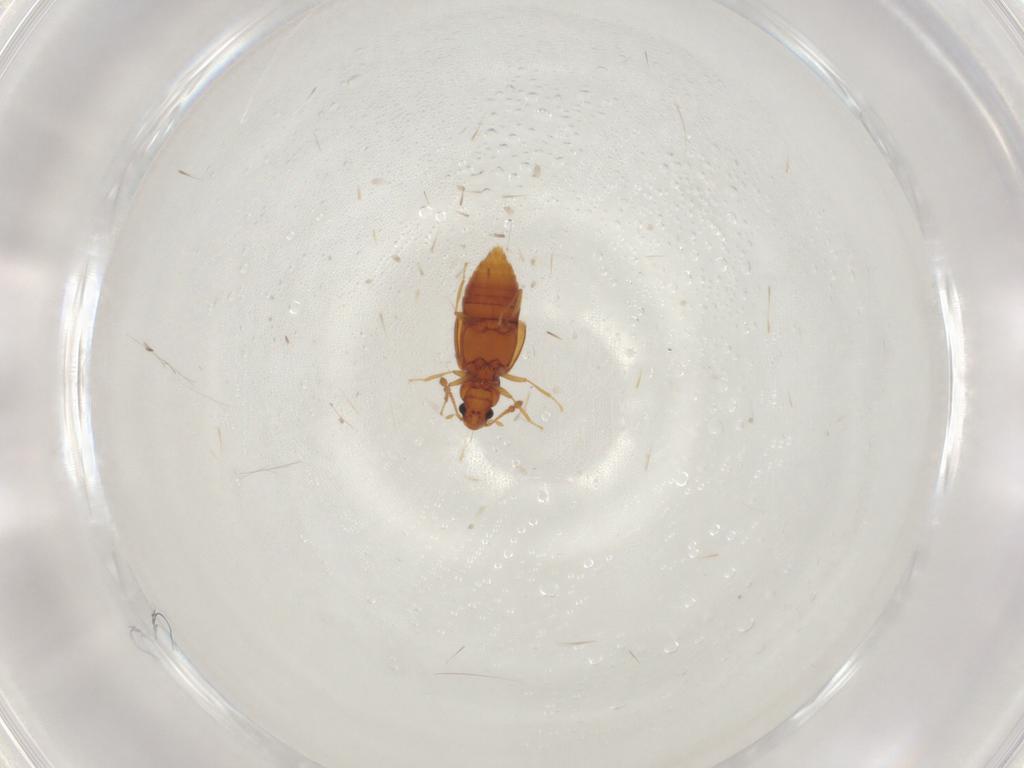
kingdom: Animalia
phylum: Arthropoda
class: Insecta
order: Coleoptera
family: Staphylinidae
